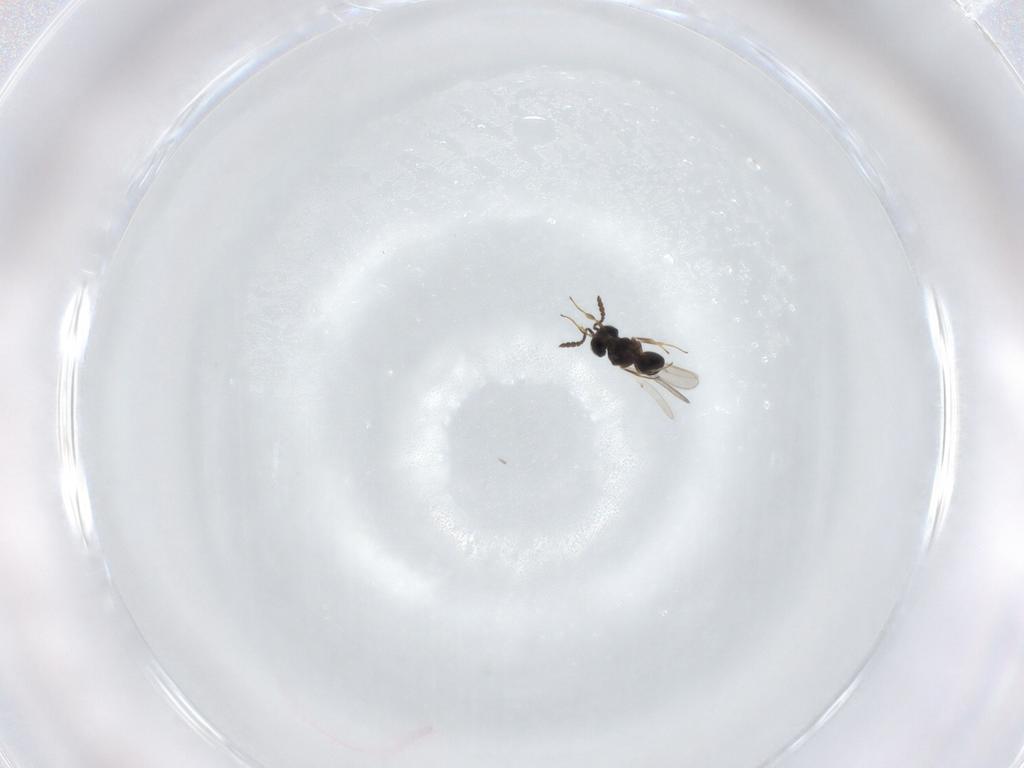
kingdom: Animalia
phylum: Arthropoda
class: Insecta
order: Hymenoptera
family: Scelionidae
